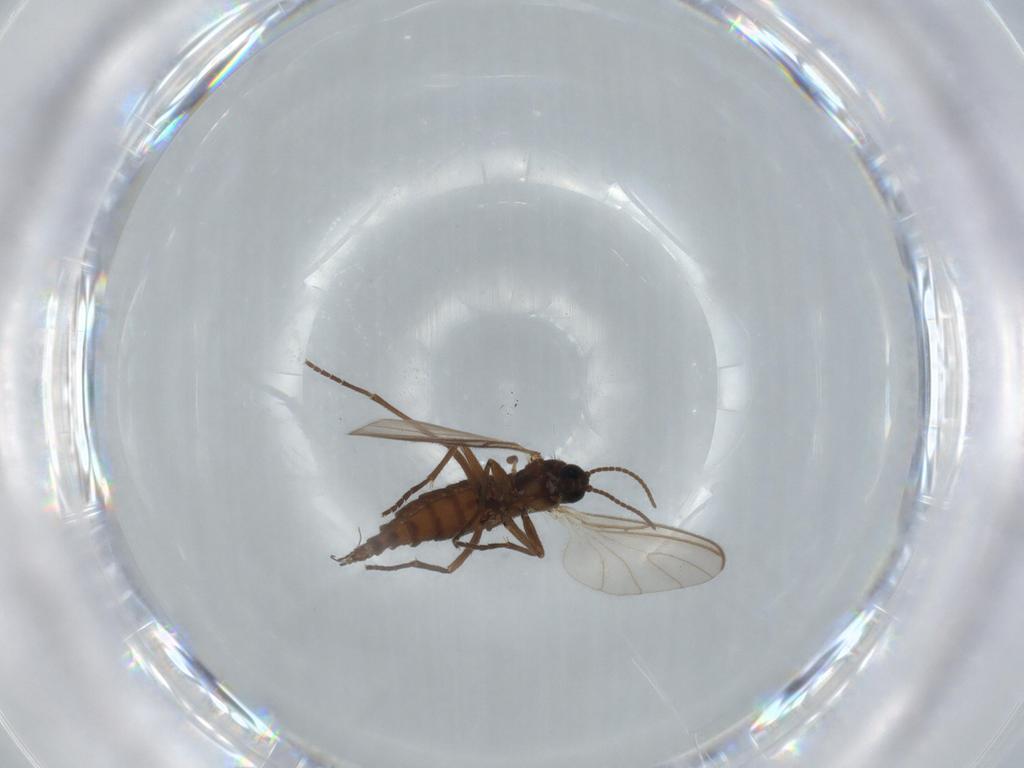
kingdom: Animalia
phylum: Arthropoda
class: Insecta
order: Diptera
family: Sciaridae
